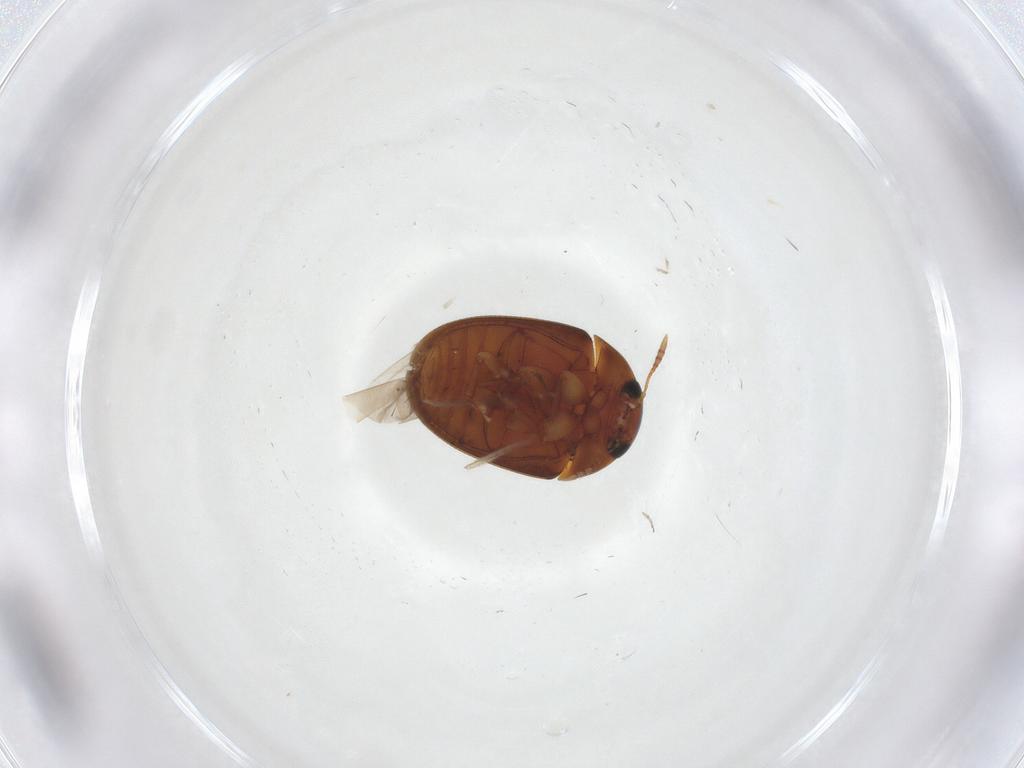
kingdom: Animalia
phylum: Arthropoda
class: Insecta
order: Coleoptera
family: Phalacridae
